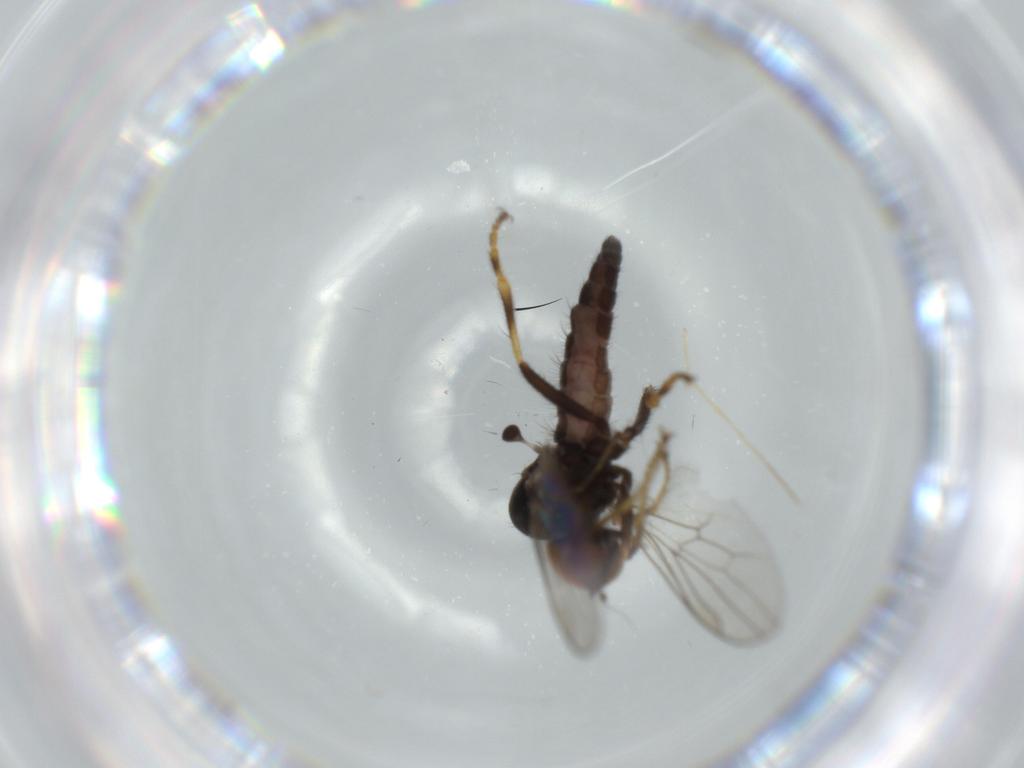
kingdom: Animalia
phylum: Arthropoda
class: Insecta
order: Diptera
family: Hybotidae
